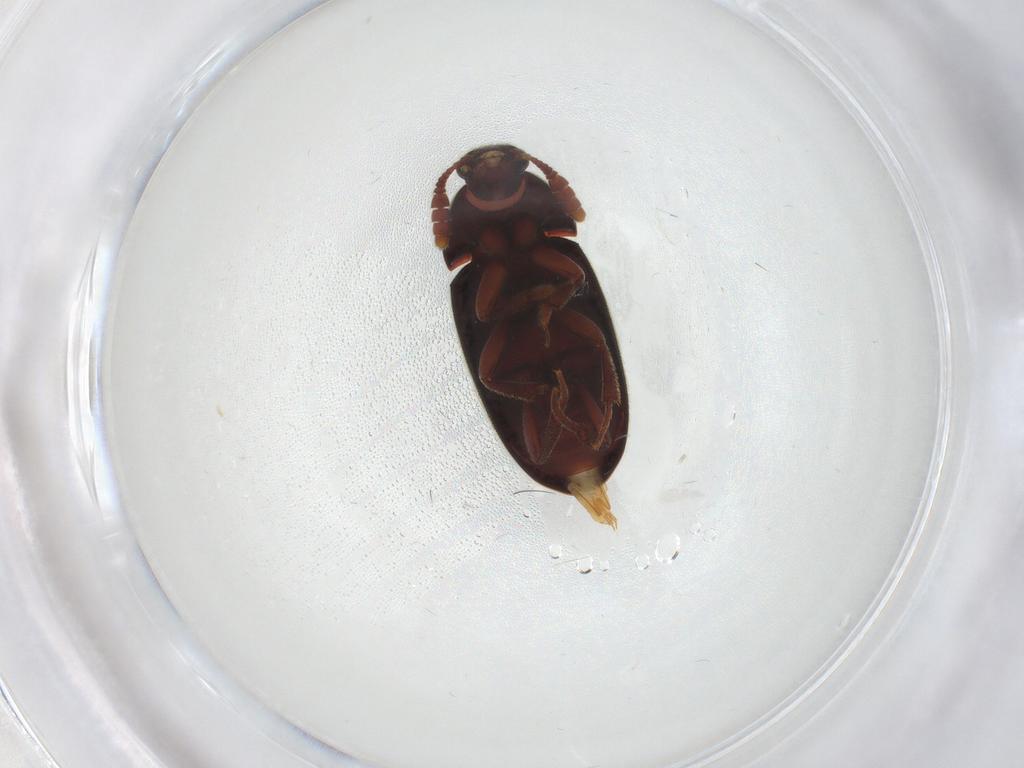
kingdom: Animalia
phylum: Arthropoda
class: Insecta
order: Coleoptera
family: Leiodidae
